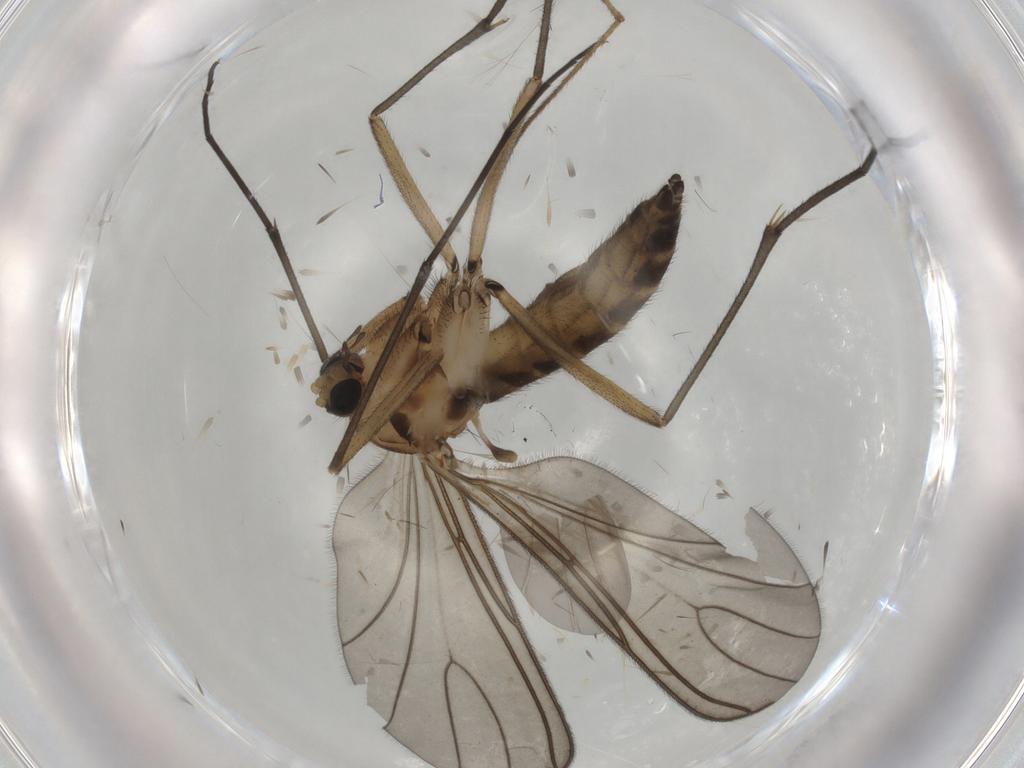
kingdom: Animalia
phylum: Arthropoda
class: Insecta
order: Diptera
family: Sciaridae
